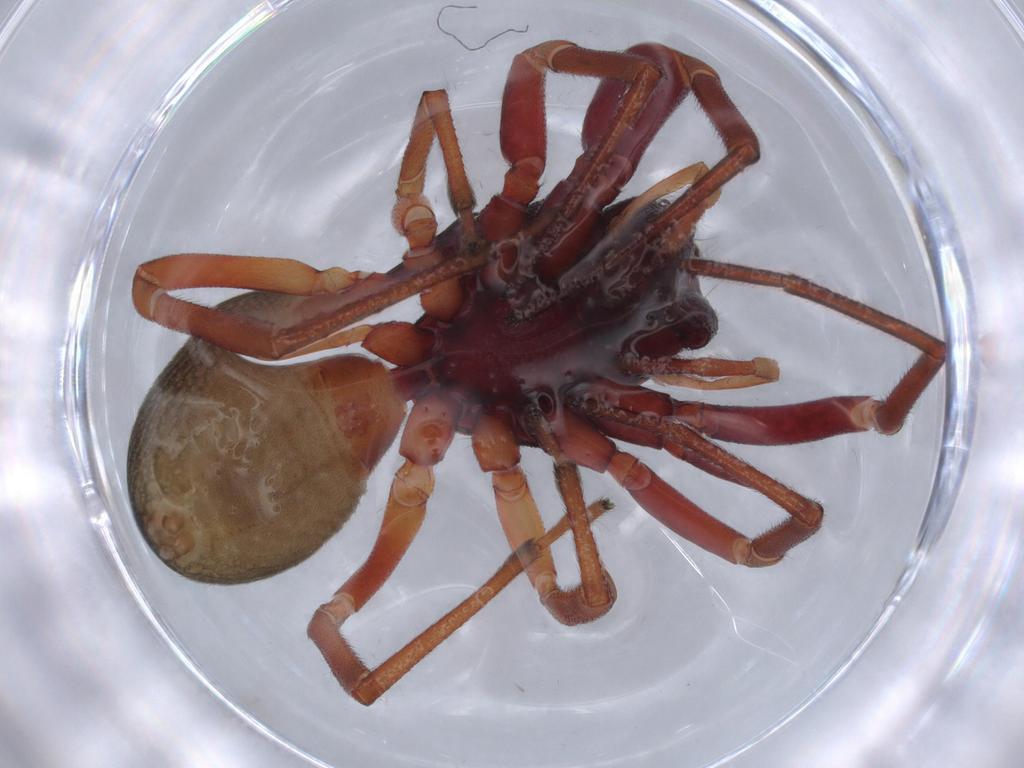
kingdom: Animalia
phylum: Arthropoda
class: Arachnida
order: Araneae
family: Trachelidae
